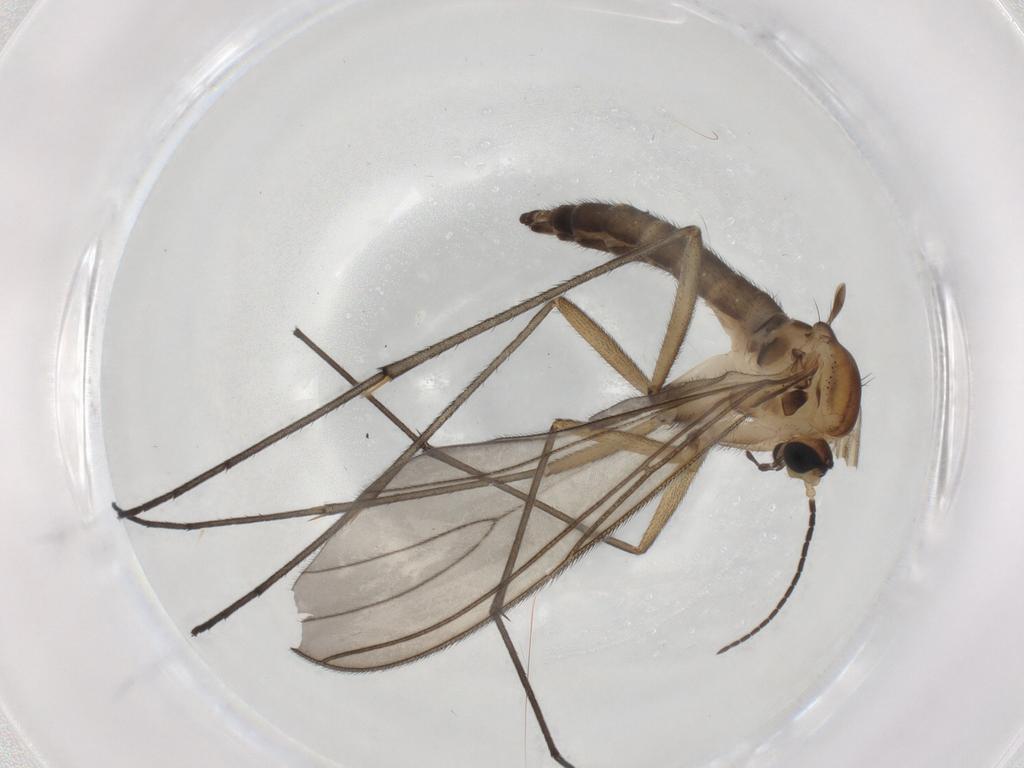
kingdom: Animalia
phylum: Arthropoda
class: Insecta
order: Diptera
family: Sciaridae
